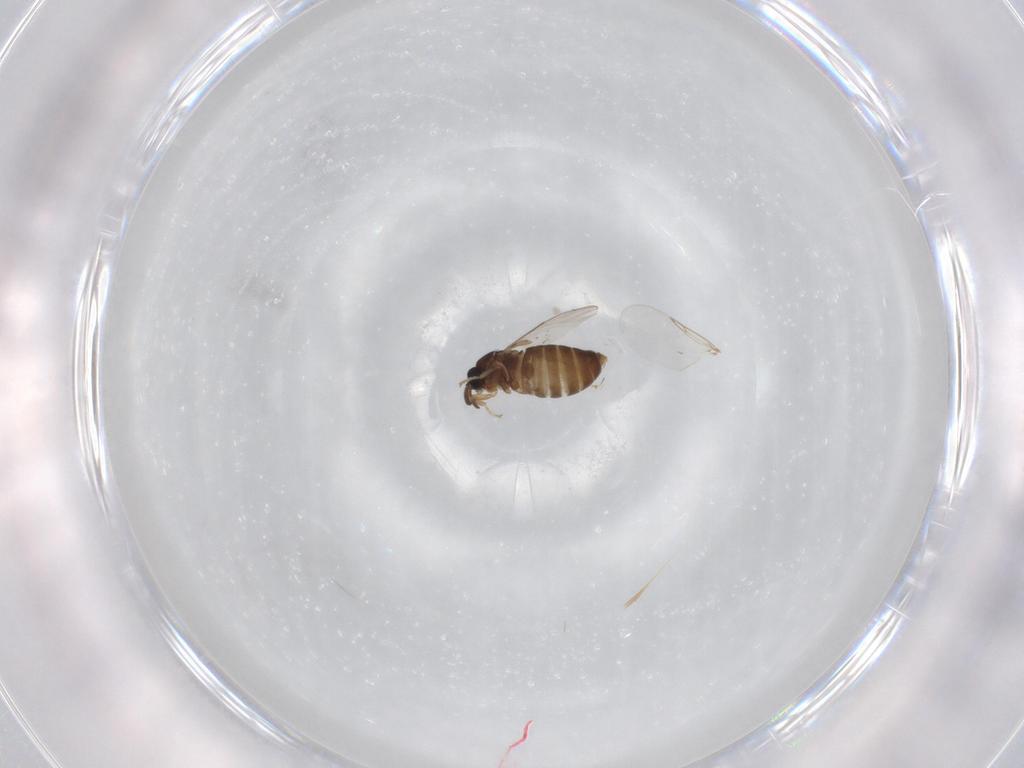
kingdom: Animalia
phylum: Arthropoda
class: Insecta
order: Diptera
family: Scatopsidae
